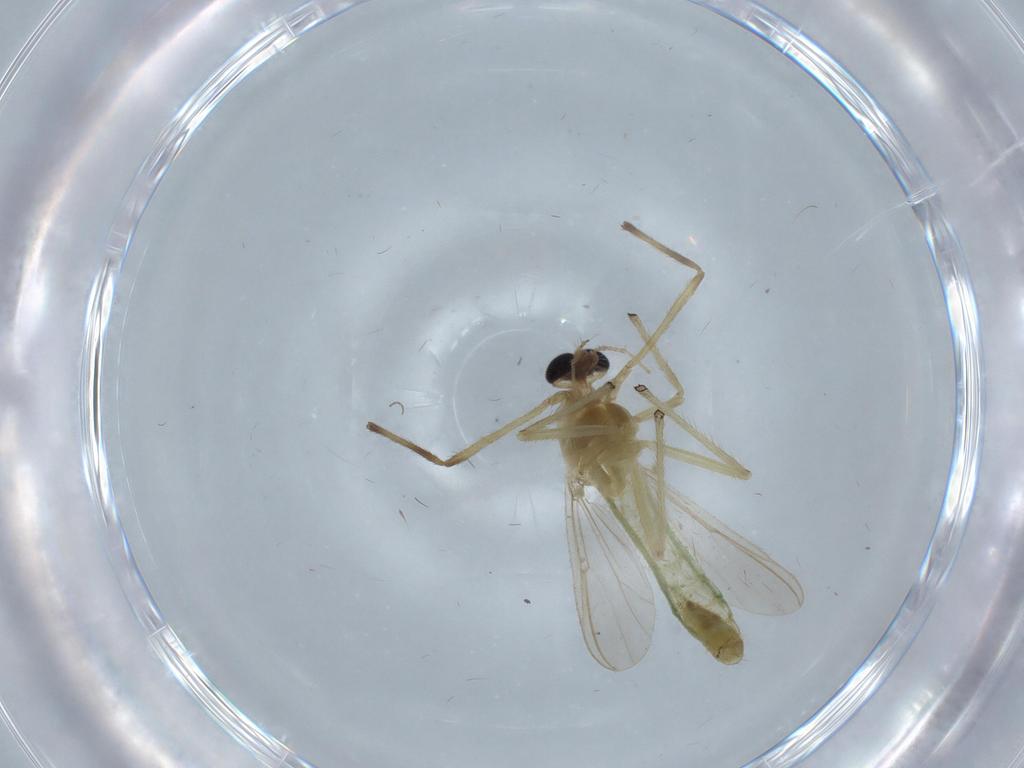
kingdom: Animalia
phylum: Arthropoda
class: Insecta
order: Diptera
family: Chironomidae
